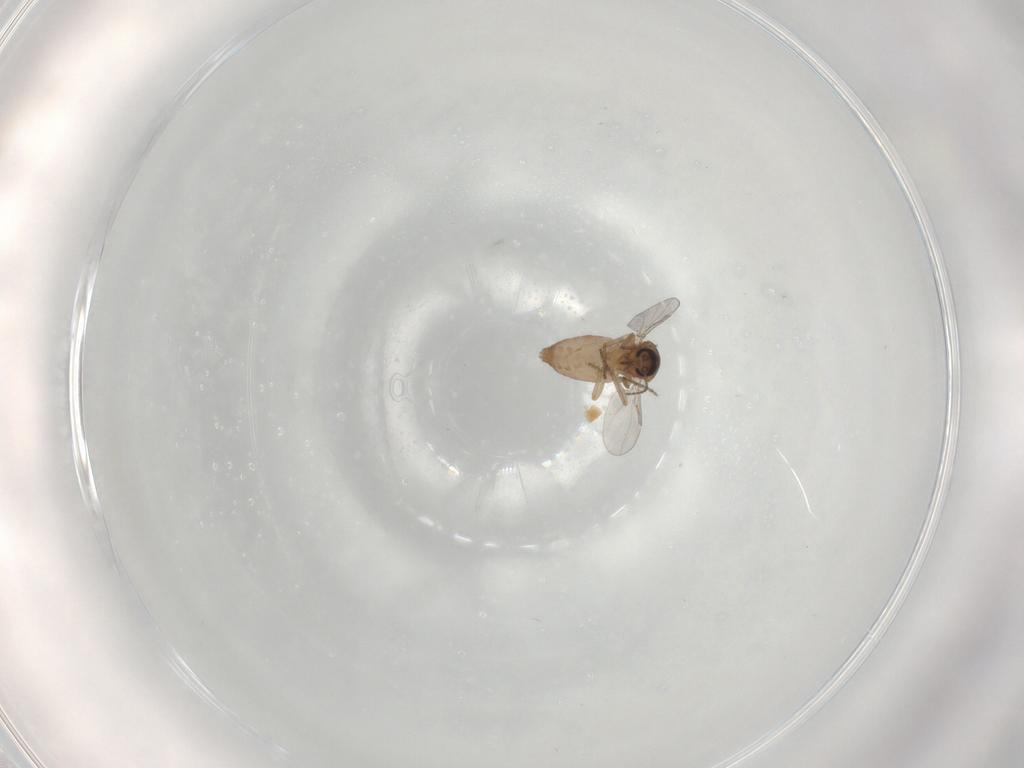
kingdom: Animalia
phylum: Arthropoda
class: Insecta
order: Diptera
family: Ceratopogonidae
